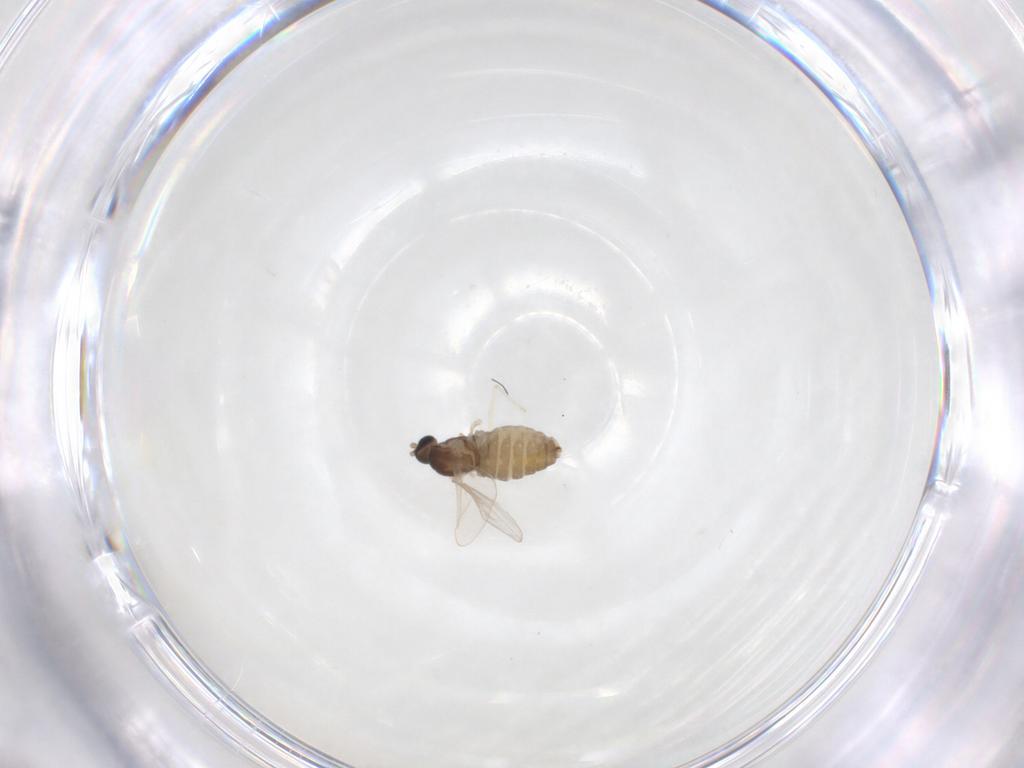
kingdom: Animalia
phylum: Arthropoda
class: Insecta
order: Diptera
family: Cecidomyiidae
